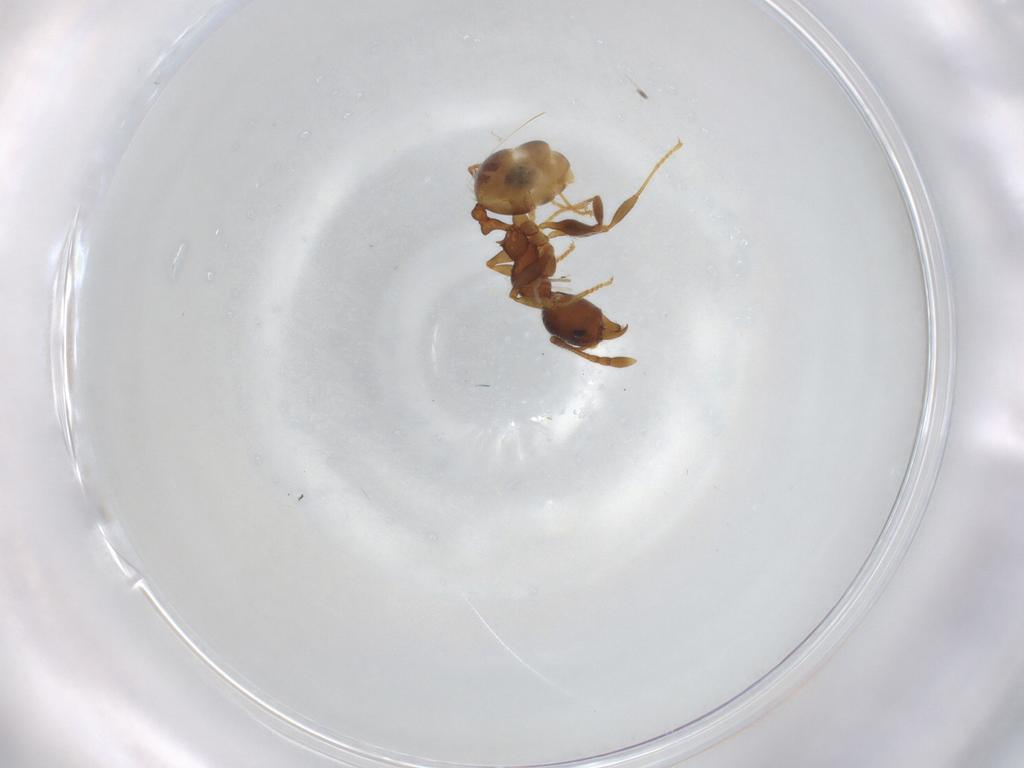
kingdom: Animalia
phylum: Arthropoda
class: Insecta
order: Hymenoptera
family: Formicidae
